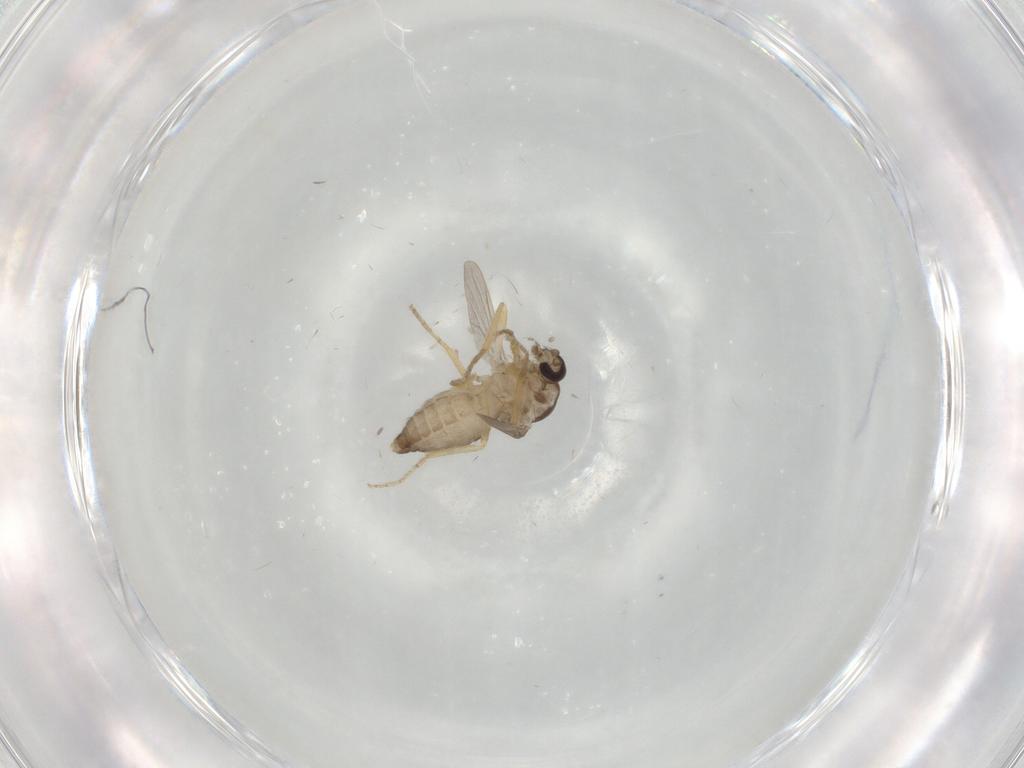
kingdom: Animalia
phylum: Arthropoda
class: Insecta
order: Diptera
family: Ceratopogonidae
